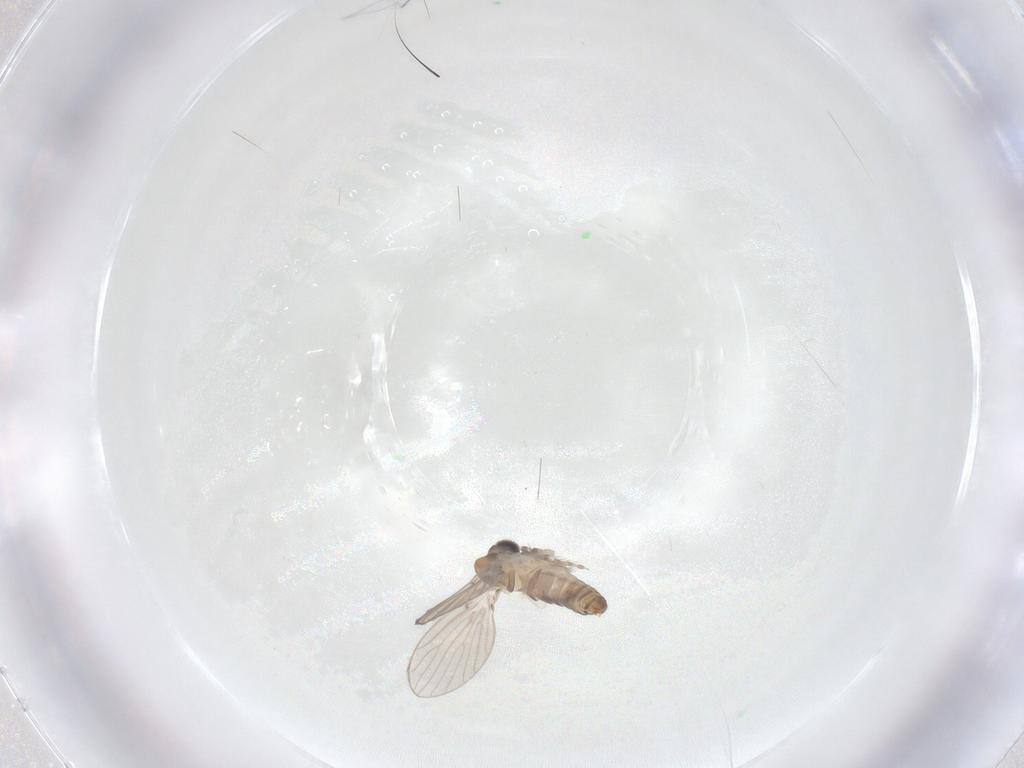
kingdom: Animalia
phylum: Arthropoda
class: Insecta
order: Diptera
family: Psychodidae
